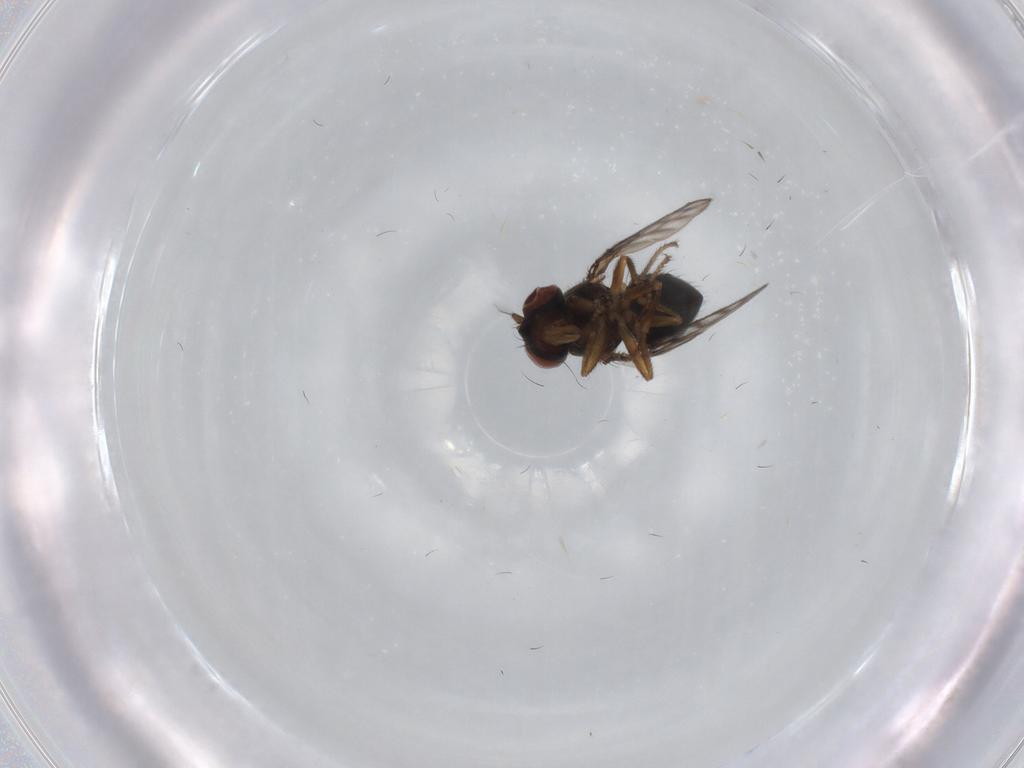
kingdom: Animalia
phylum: Arthropoda
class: Insecta
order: Diptera
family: Ephydridae
